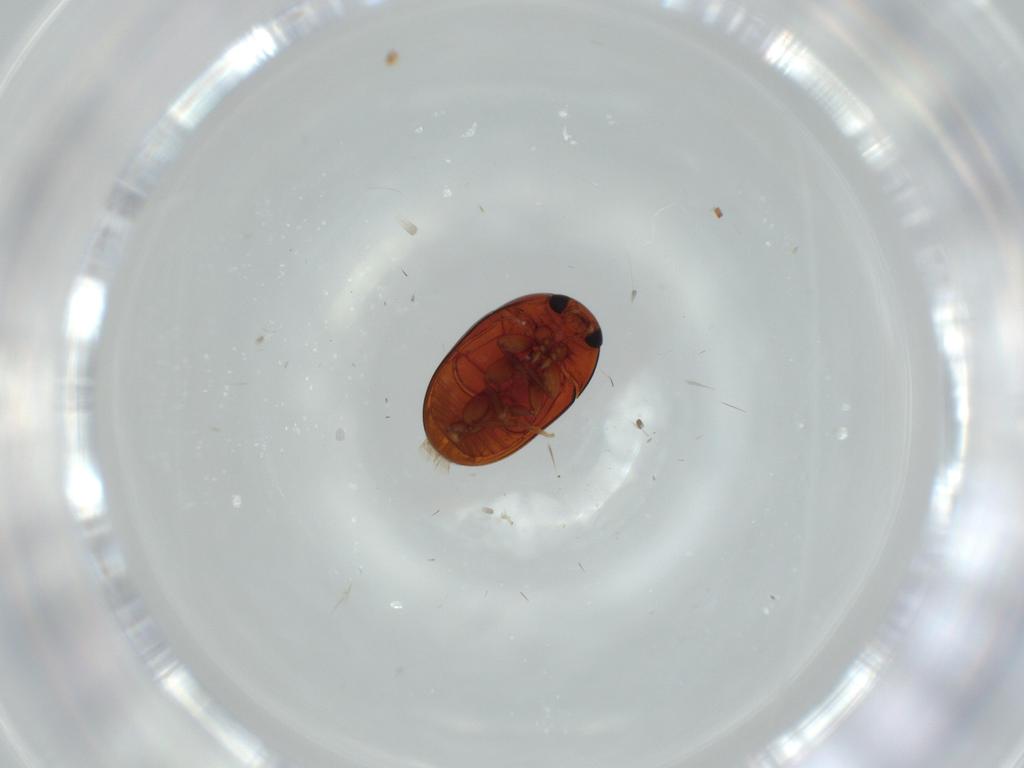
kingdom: Animalia
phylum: Arthropoda
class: Insecta
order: Coleoptera
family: Phalacridae
